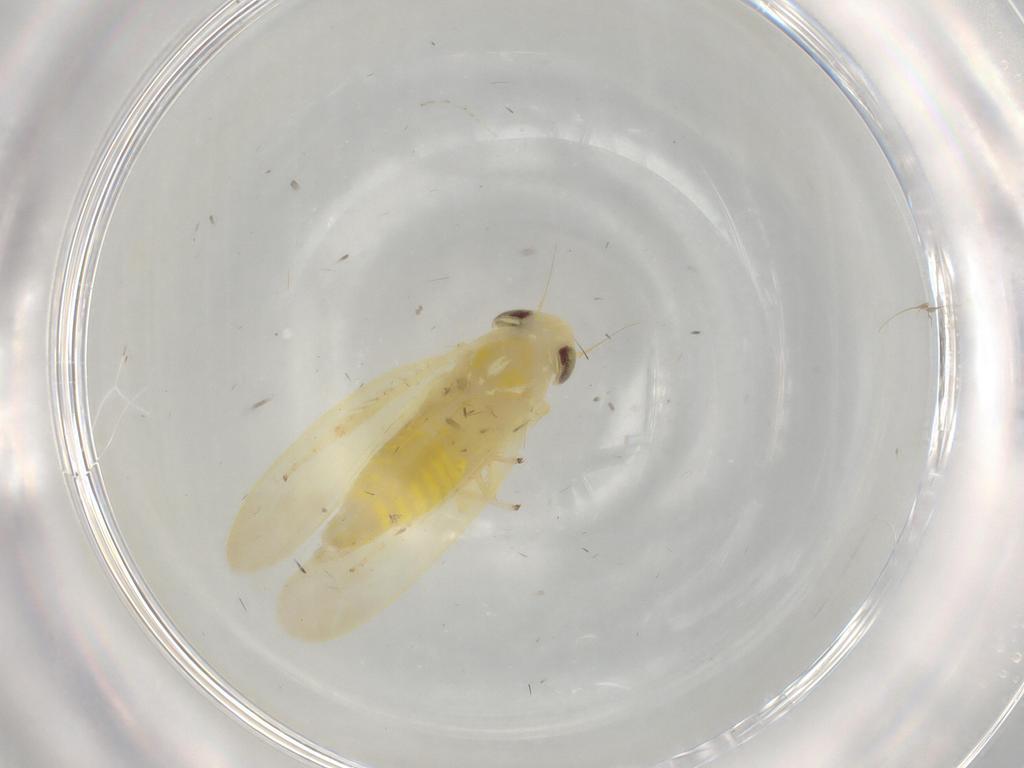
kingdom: Animalia
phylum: Arthropoda
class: Insecta
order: Hemiptera
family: Cicadellidae
